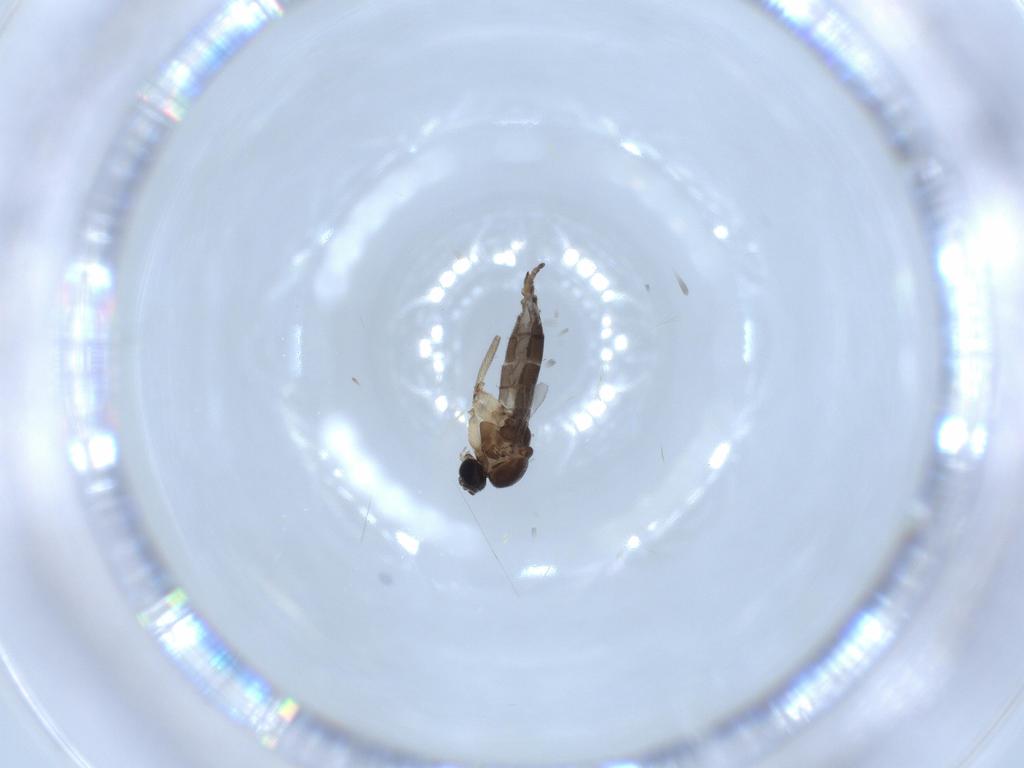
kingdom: Animalia
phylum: Arthropoda
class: Insecta
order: Diptera
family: Sciaridae
